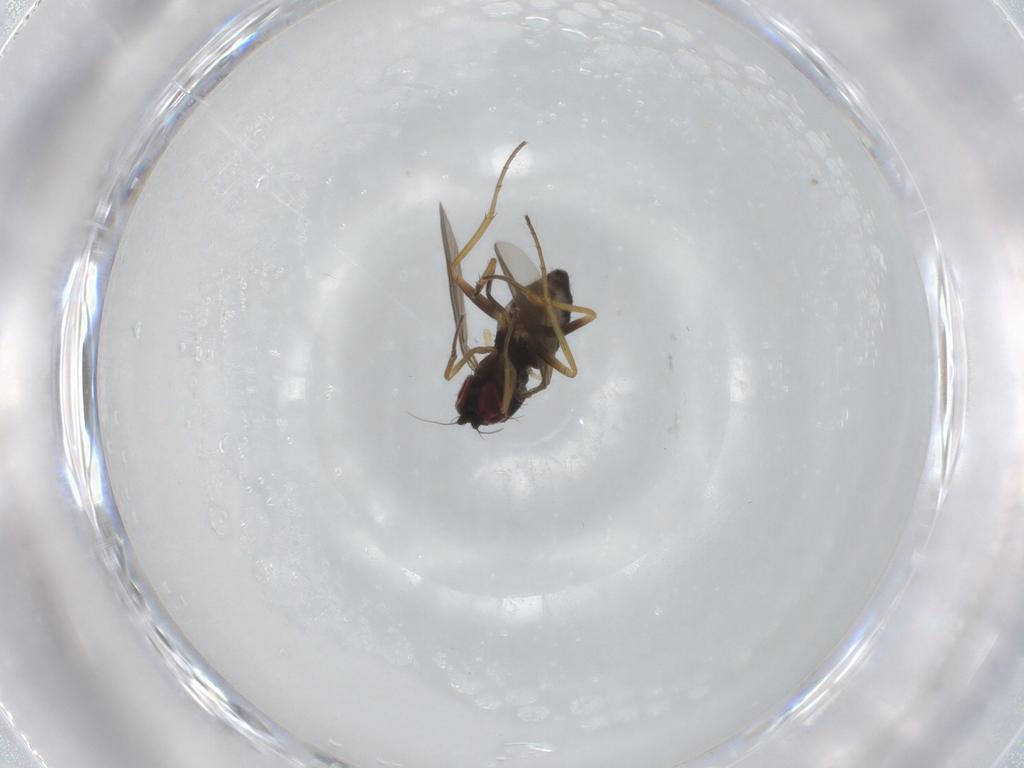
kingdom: Animalia
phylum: Arthropoda
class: Insecta
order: Diptera
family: Dolichopodidae
